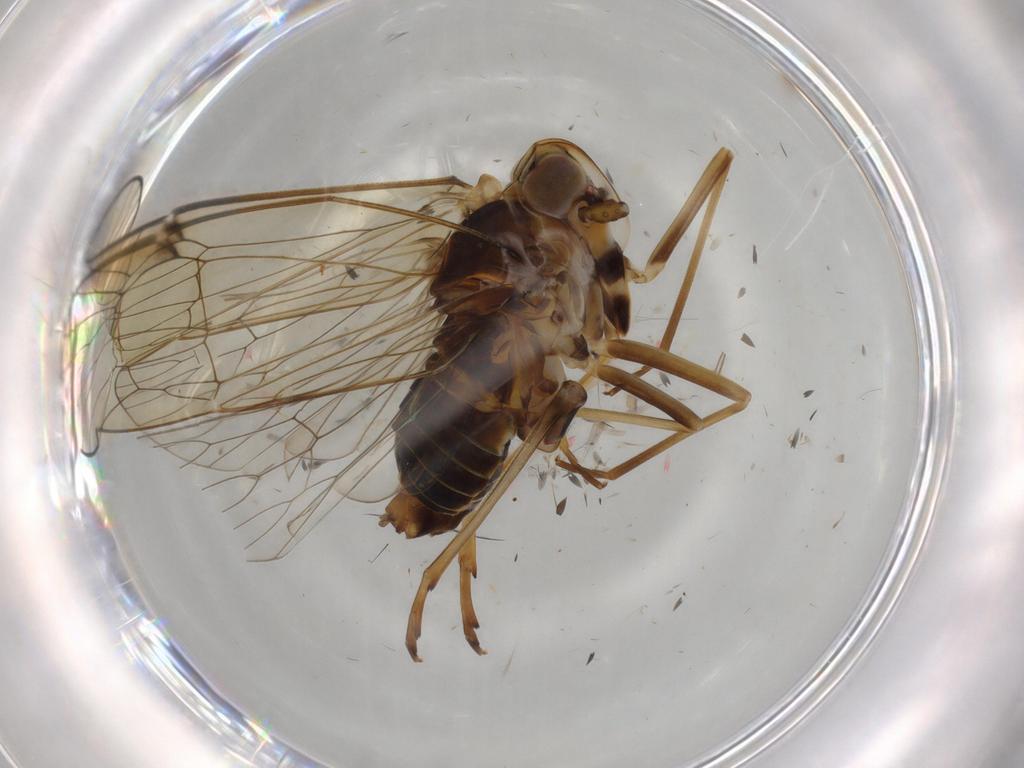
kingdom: Animalia
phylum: Arthropoda
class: Insecta
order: Hemiptera
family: Kinnaridae
